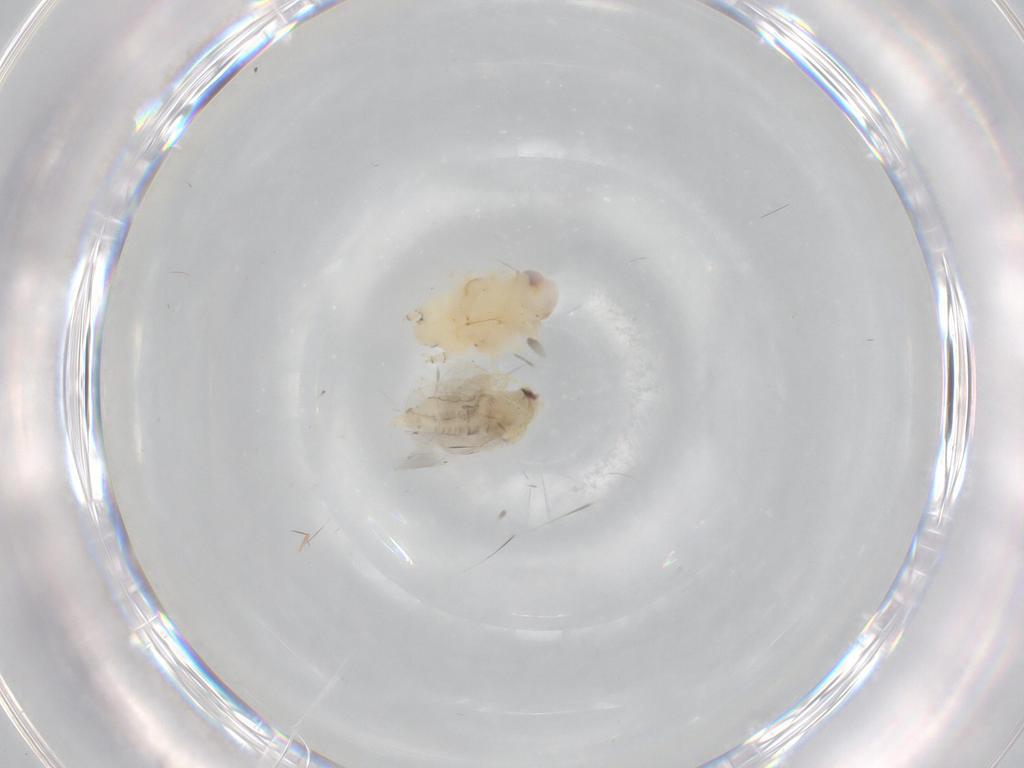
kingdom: Animalia
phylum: Arthropoda
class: Insecta
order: Hemiptera
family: Aleyrodidae
